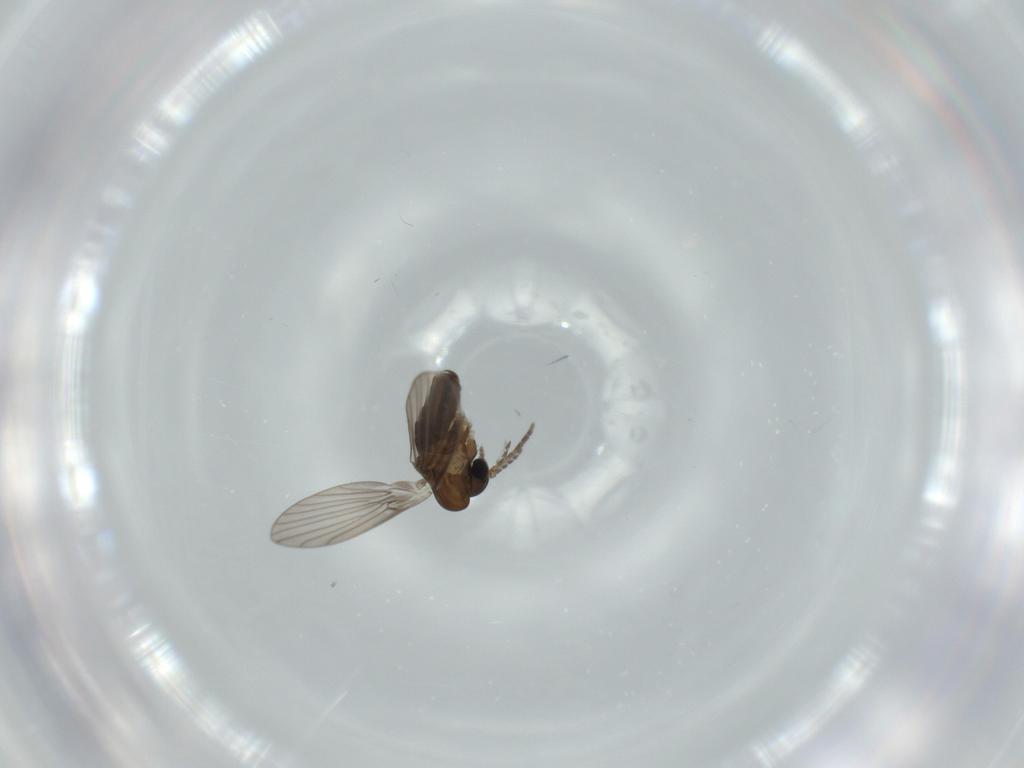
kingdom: Animalia
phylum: Arthropoda
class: Insecta
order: Diptera
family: Psychodidae
